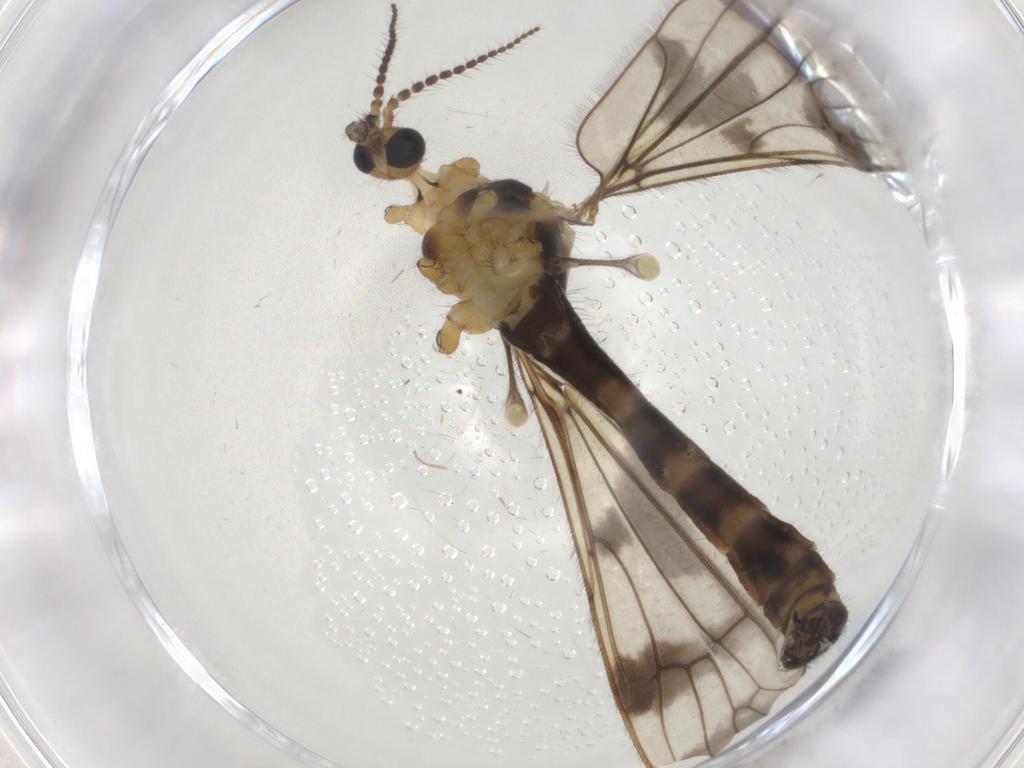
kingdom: Animalia
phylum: Arthropoda
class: Insecta
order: Diptera
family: Limoniidae
